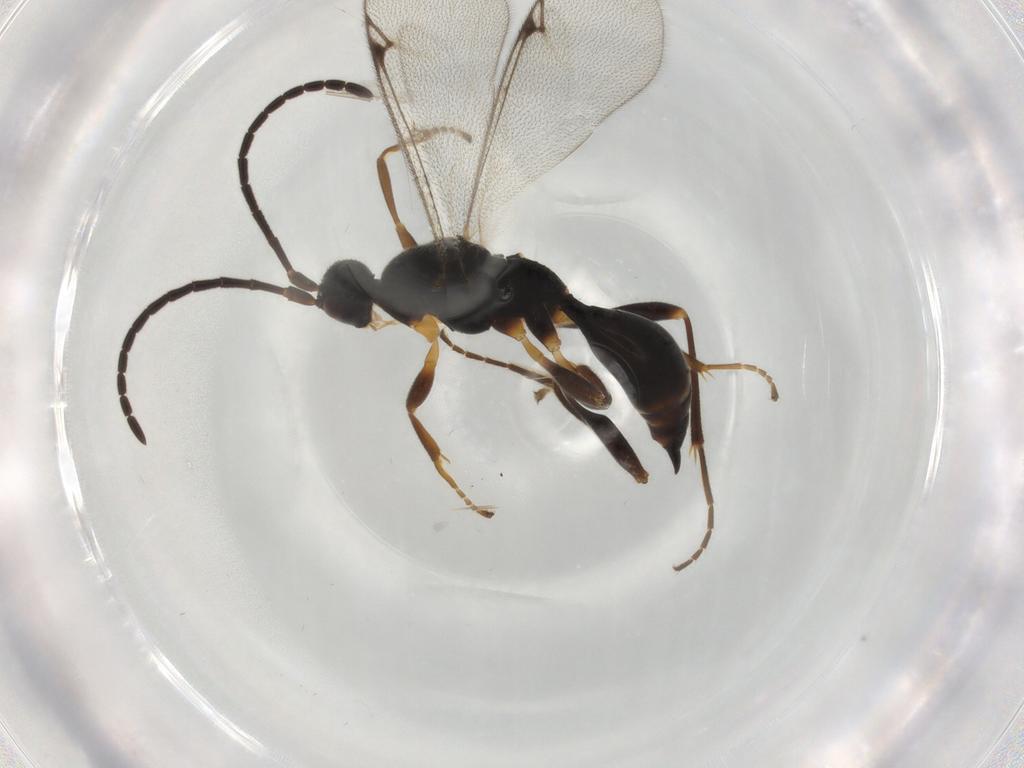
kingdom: Animalia
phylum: Arthropoda
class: Insecta
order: Hymenoptera
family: Proctotrupidae
